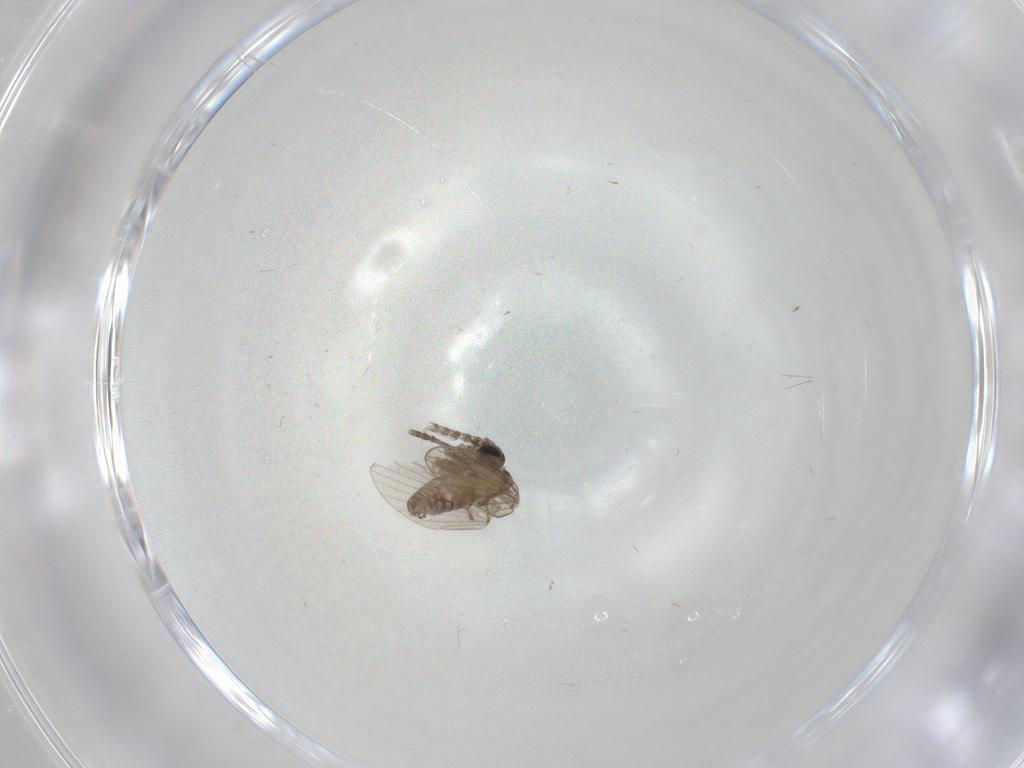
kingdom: Animalia
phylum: Arthropoda
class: Insecta
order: Diptera
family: Psychodidae
